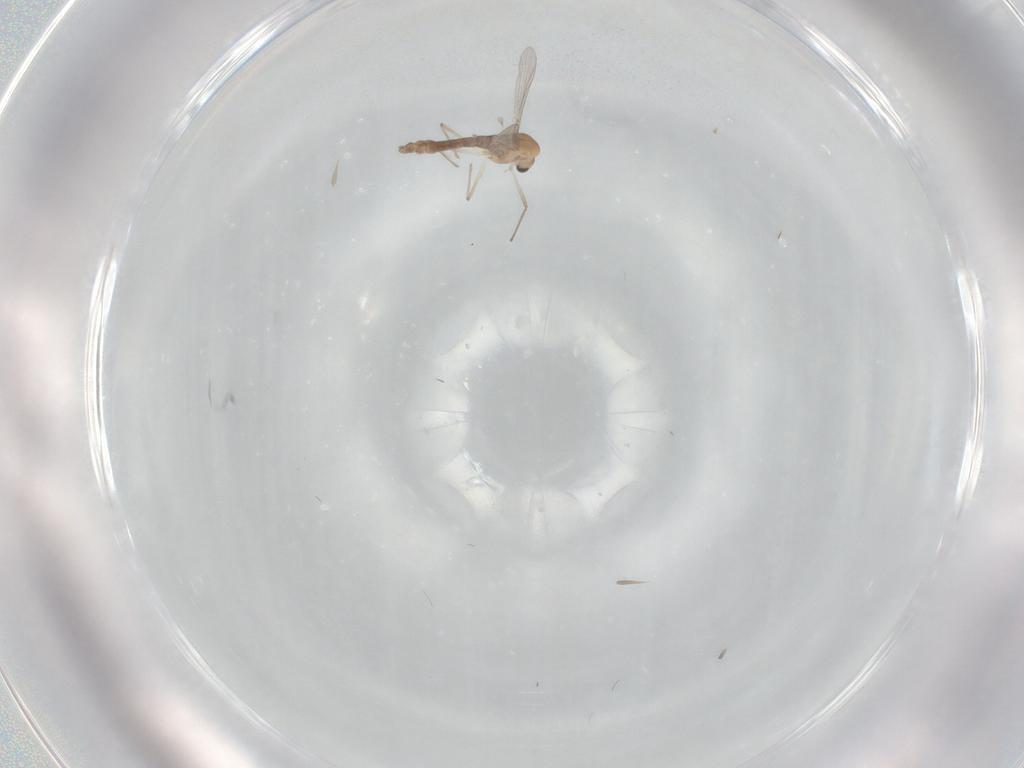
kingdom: Animalia
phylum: Arthropoda
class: Insecta
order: Diptera
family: Chironomidae
